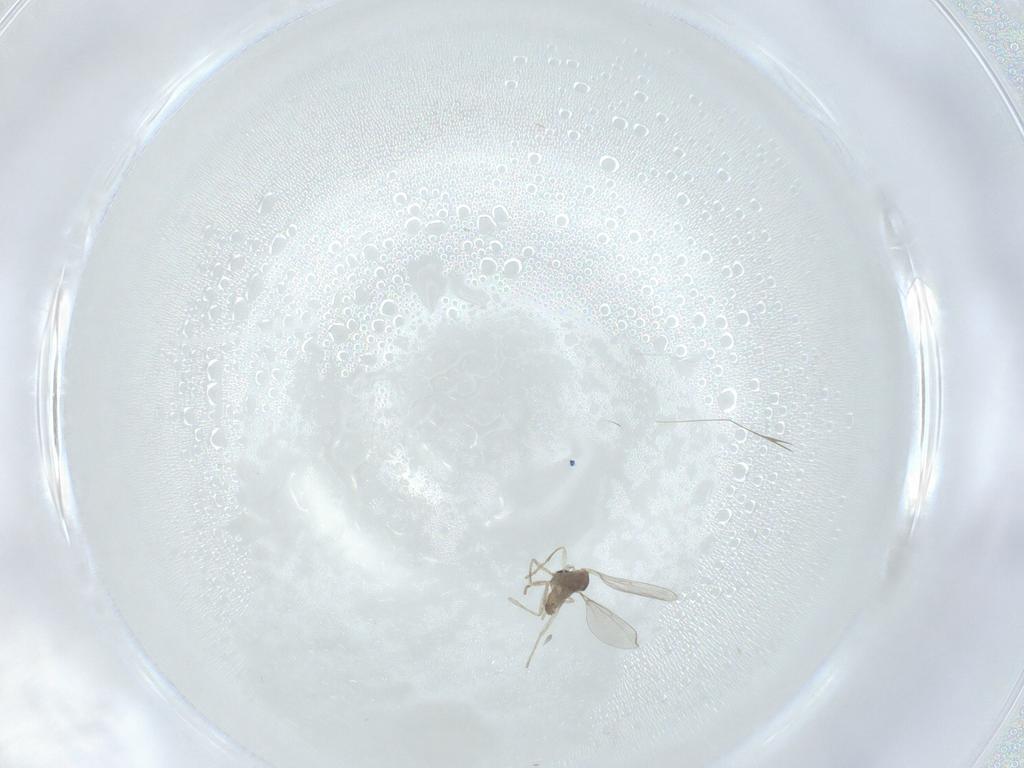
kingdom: Animalia
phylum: Arthropoda
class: Insecta
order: Diptera
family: Cecidomyiidae
